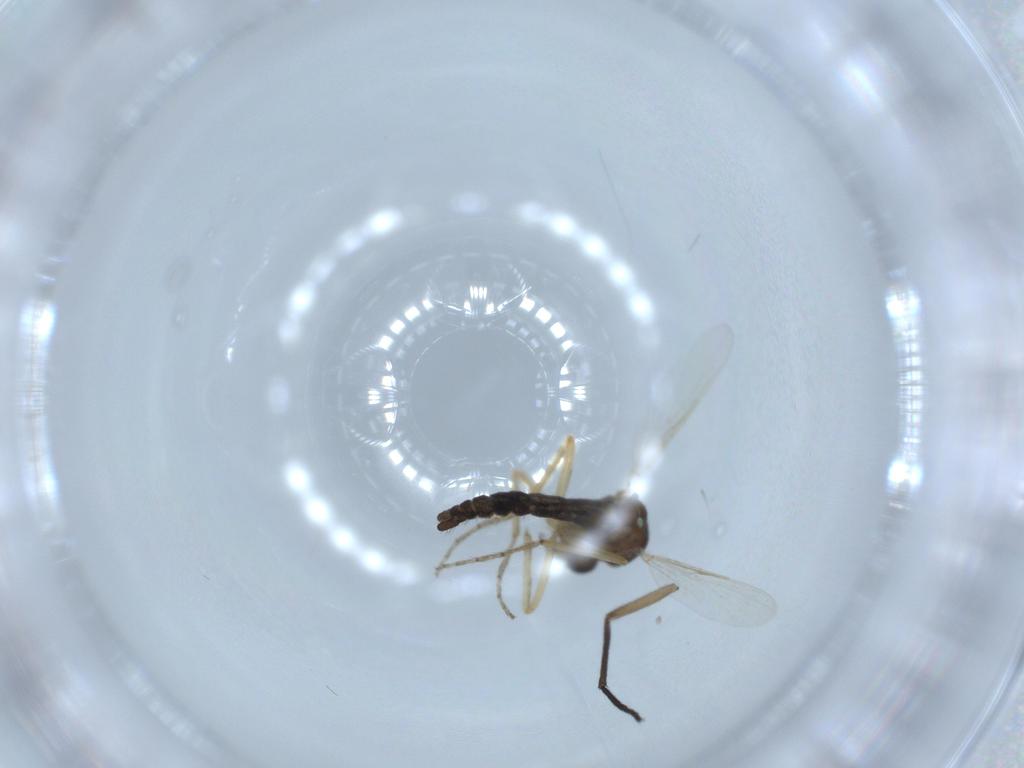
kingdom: Animalia
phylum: Arthropoda
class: Insecta
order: Diptera
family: Ceratopogonidae
